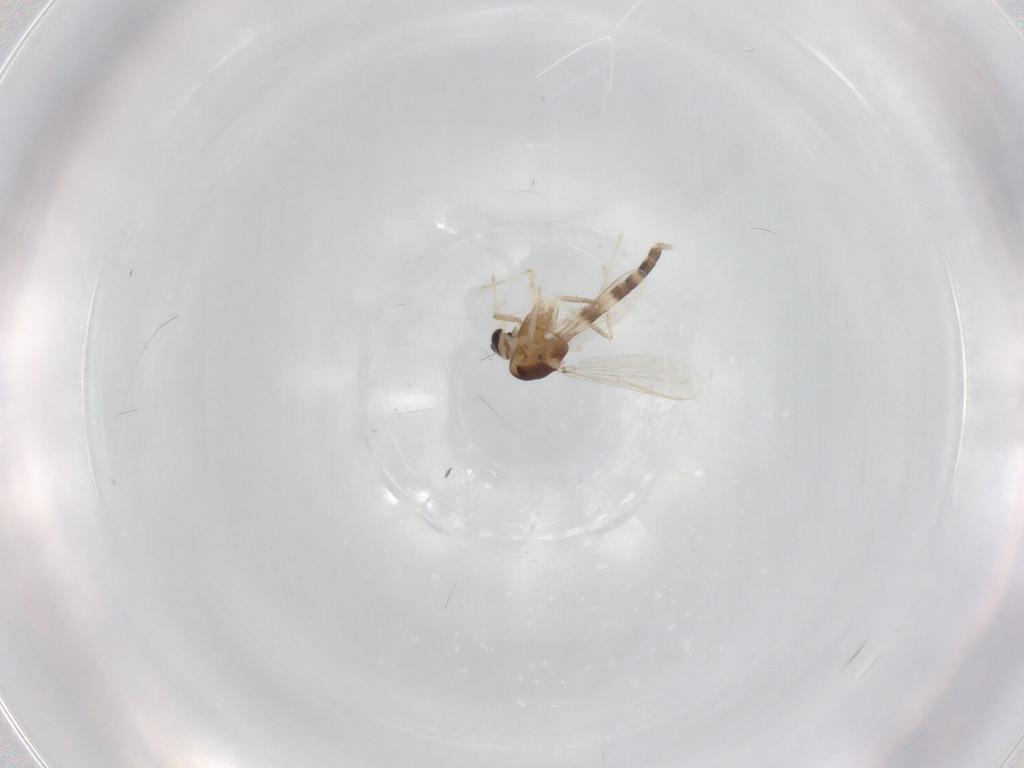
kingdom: Animalia
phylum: Arthropoda
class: Insecta
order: Diptera
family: Chironomidae
